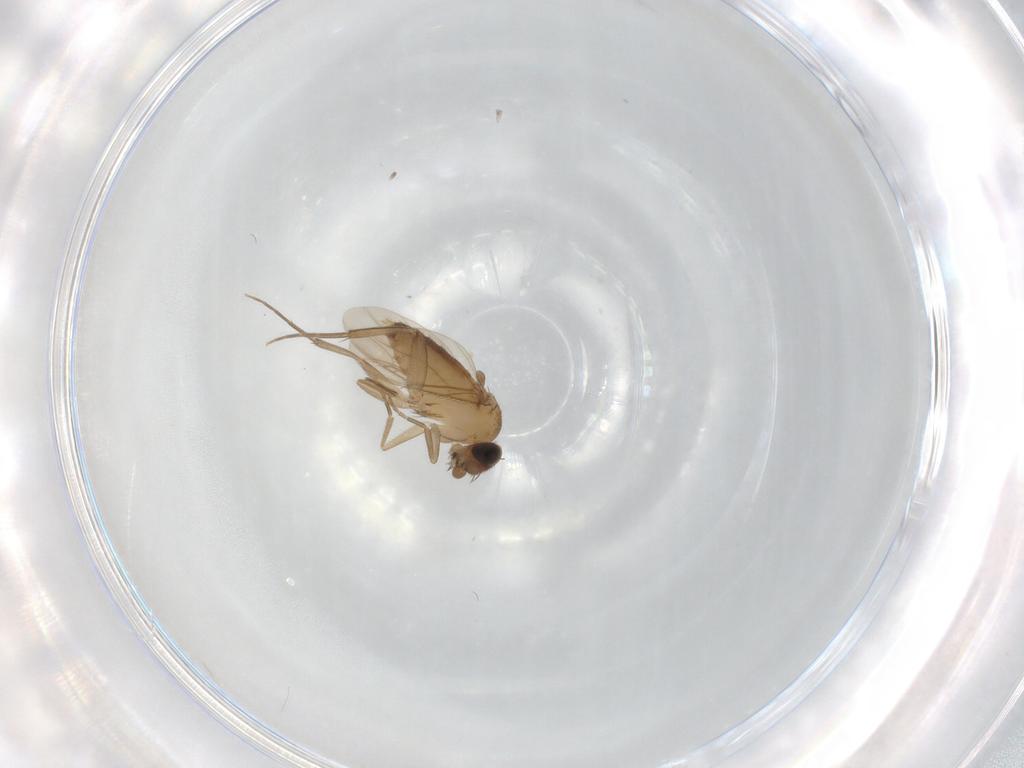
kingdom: Animalia
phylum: Arthropoda
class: Insecta
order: Diptera
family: Phoridae
